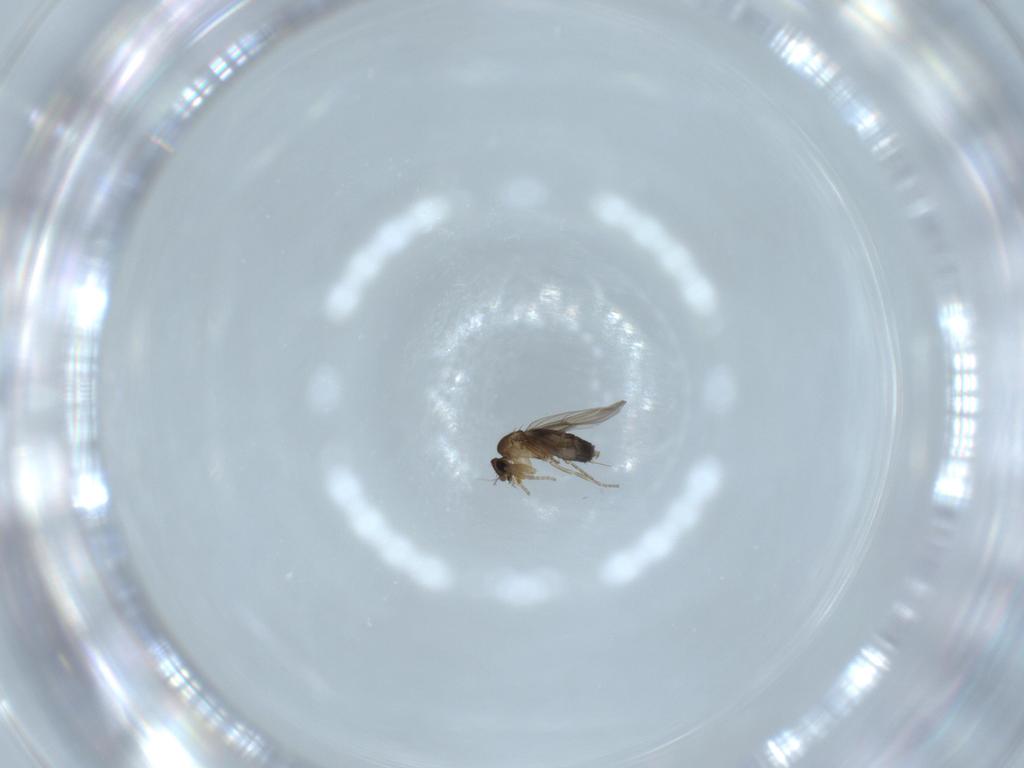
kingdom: Animalia
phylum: Arthropoda
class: Insecta
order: Diptera
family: Phoridae
